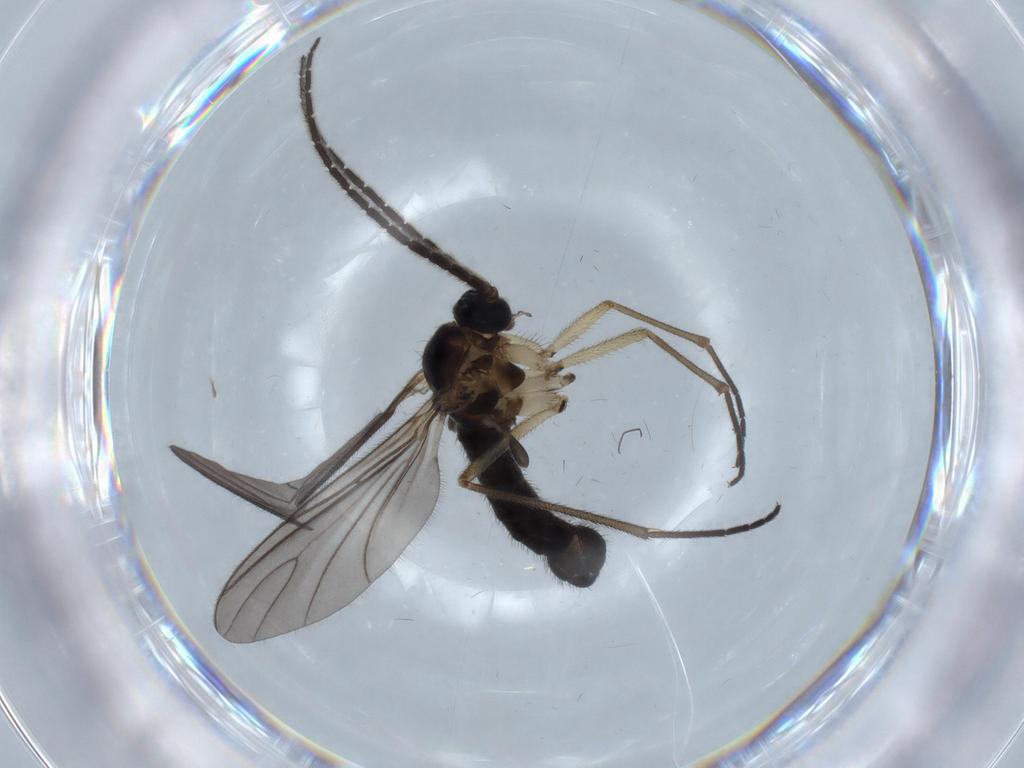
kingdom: Animalia
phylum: Arthropoda
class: Insecta
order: Diptera
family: Sciaridae
